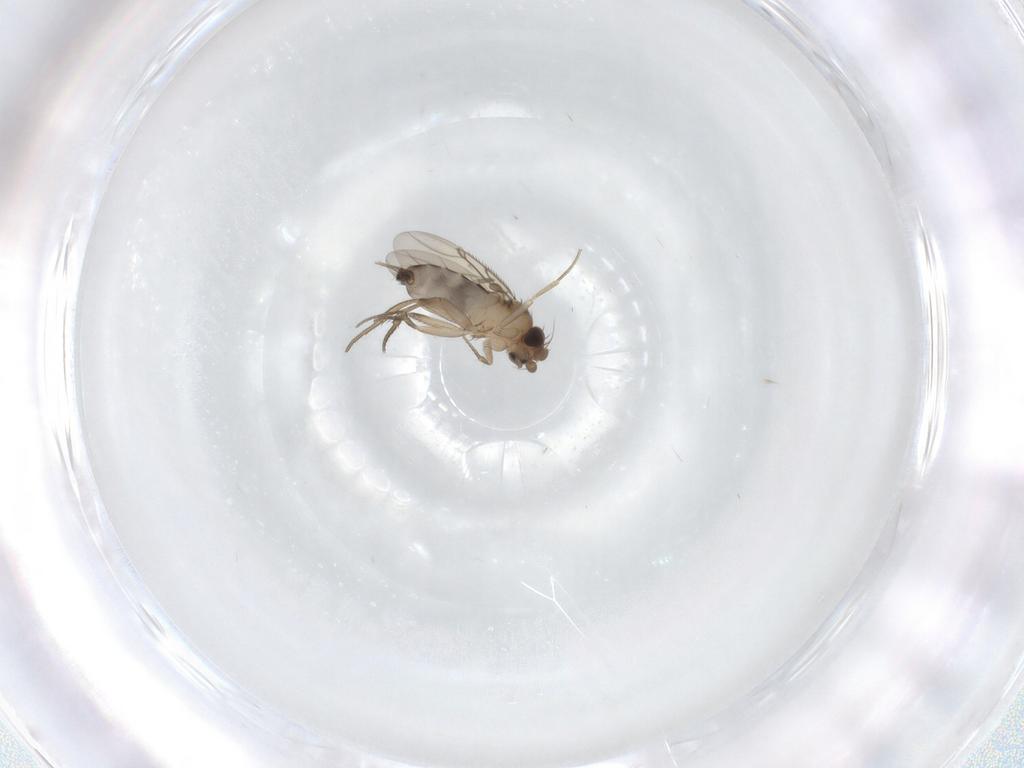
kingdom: Animalia
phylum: Arthropoda
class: Insecta
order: Diptera
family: Phoridae
